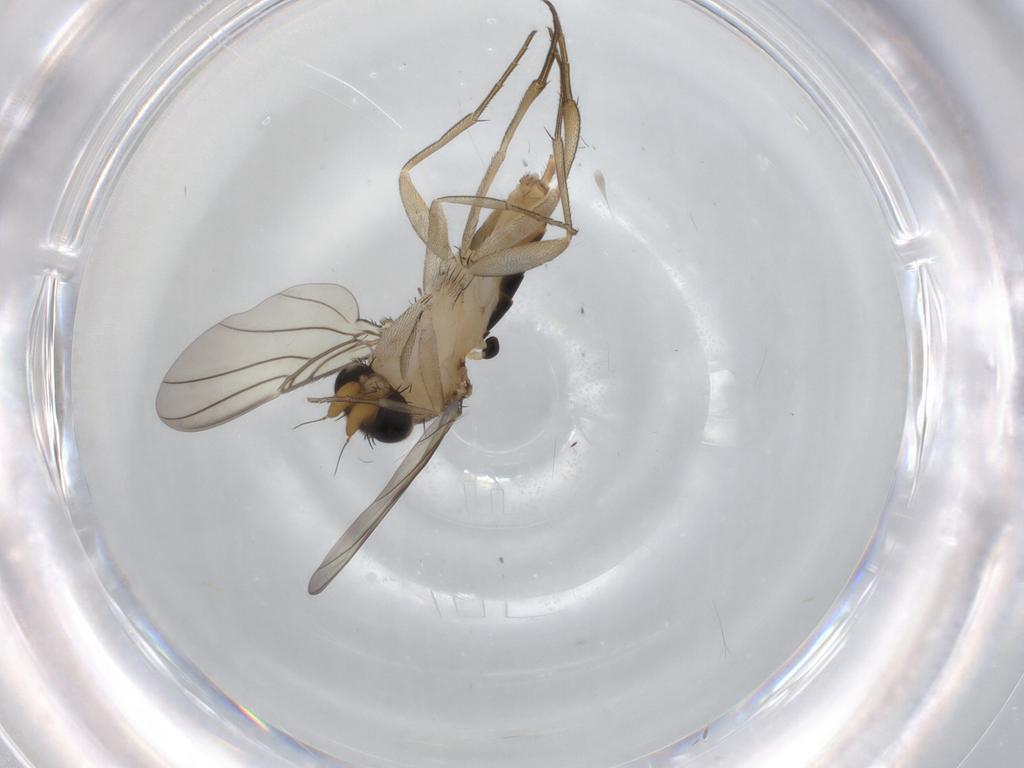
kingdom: Animalia
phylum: Arthropoda
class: Insecta
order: Diptera
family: Phoridae
